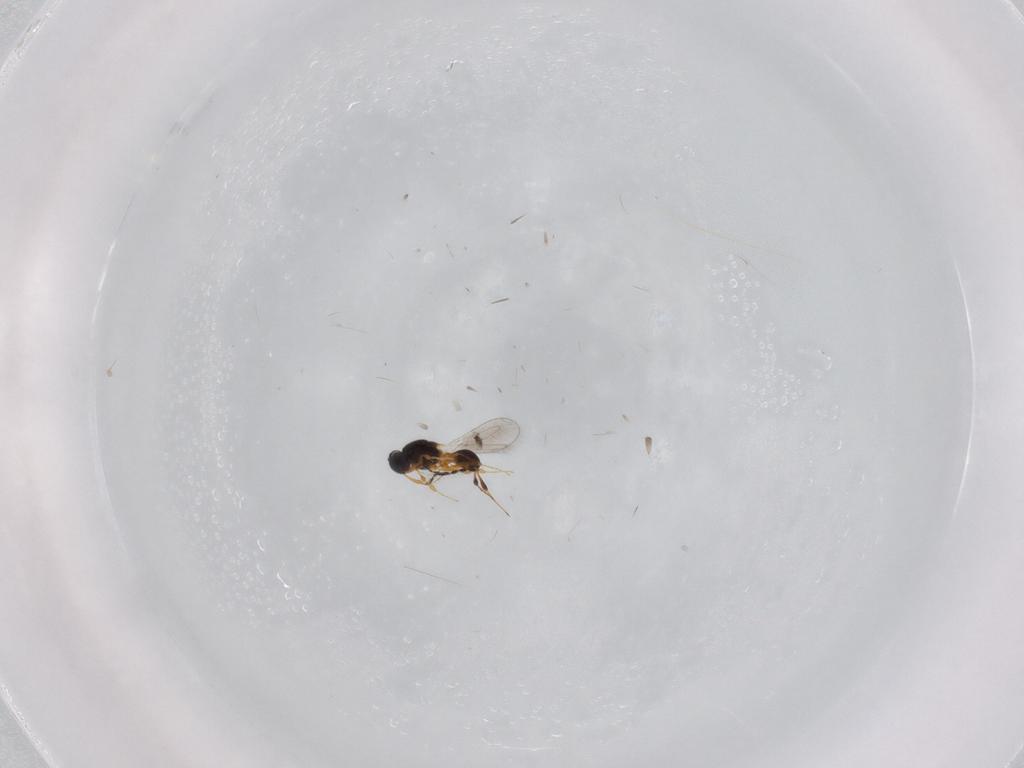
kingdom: Animalia
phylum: Arthropoda
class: Insecta
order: Hymenoptera
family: Platygastridae
